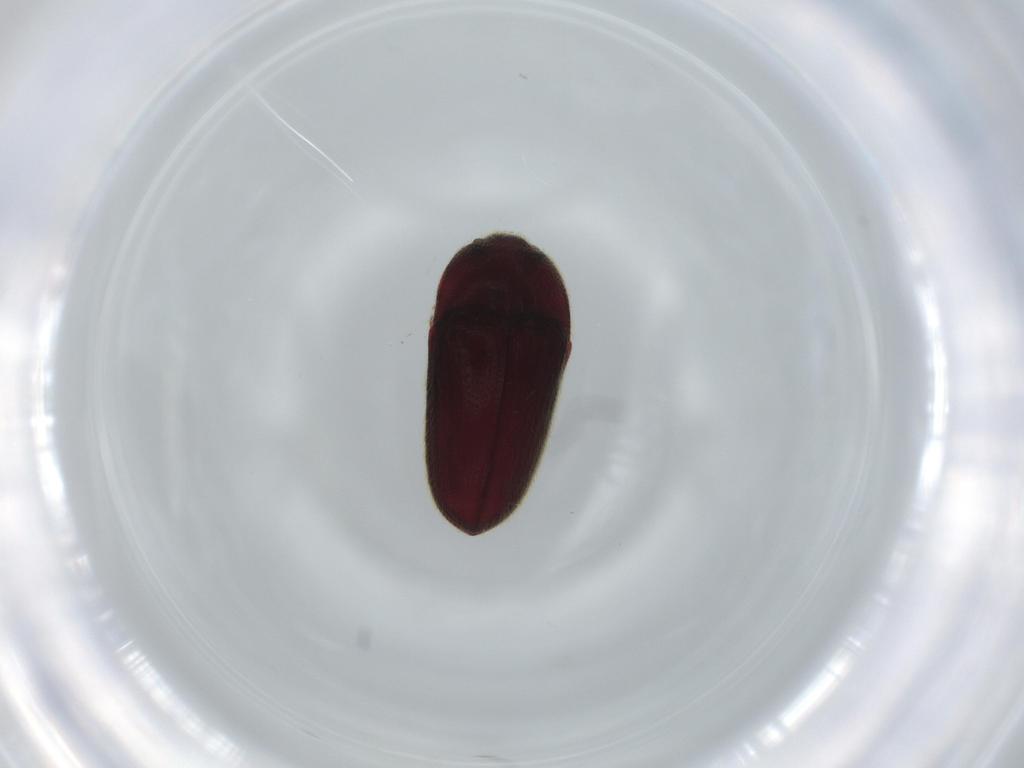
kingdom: Animalia
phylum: Arthropoda
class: Insecta
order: Coleoptera
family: Throscidae
